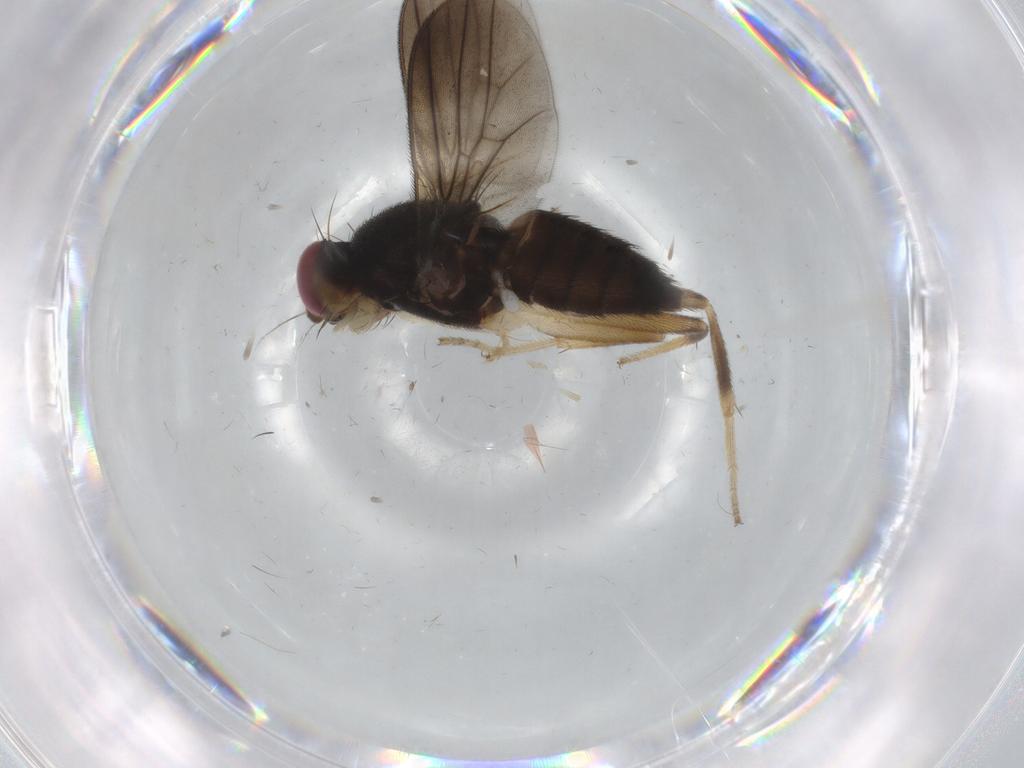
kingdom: Animalia
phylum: Arthropoda
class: Insecta
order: Diptera
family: Clusiidae
